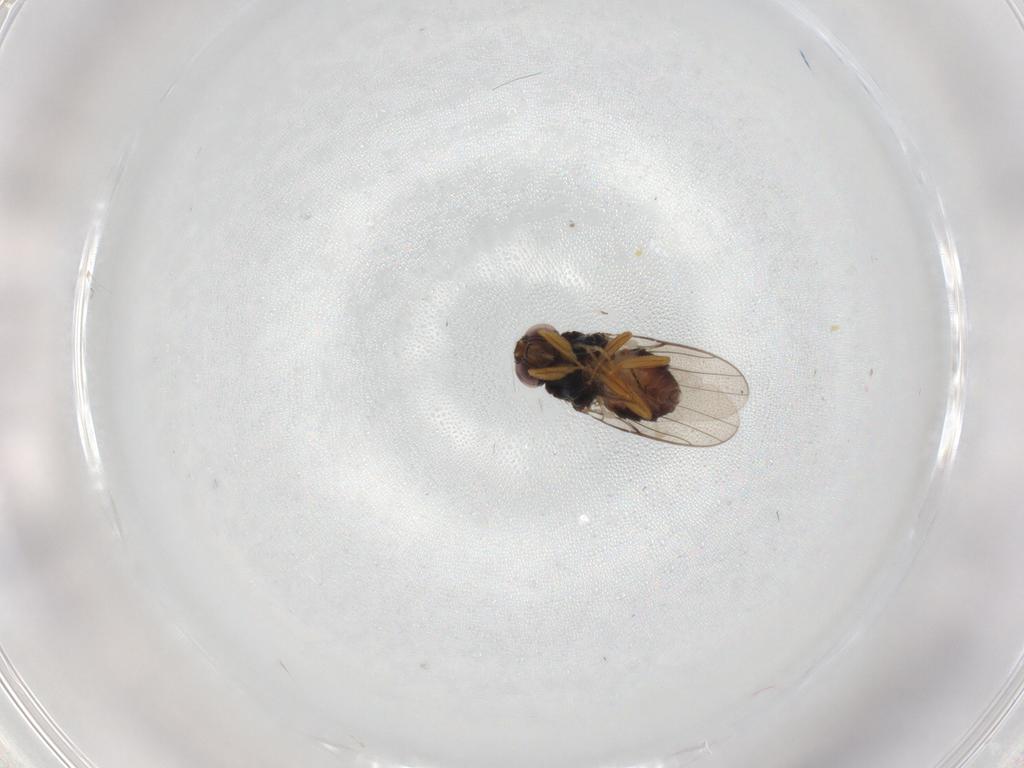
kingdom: Animalia
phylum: Arthropoda
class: Insecta
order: Diptera
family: Chloropidae
